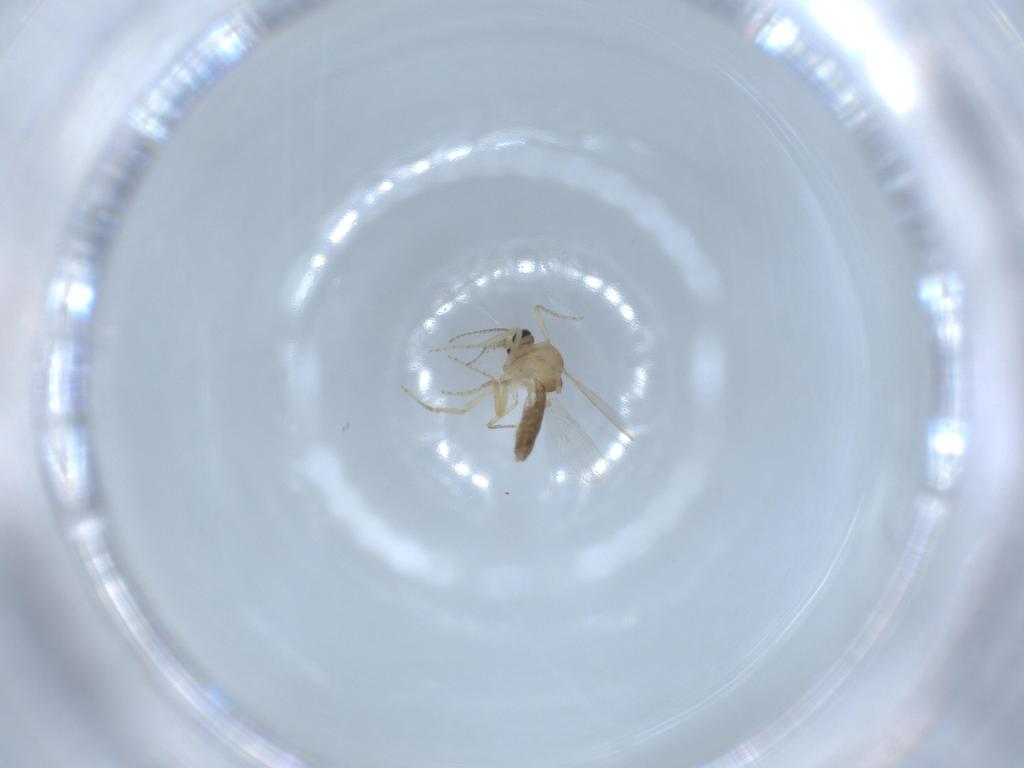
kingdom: Animalia
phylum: Arthropoda
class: Insecta
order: Diptera
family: Ceratopogonidae
